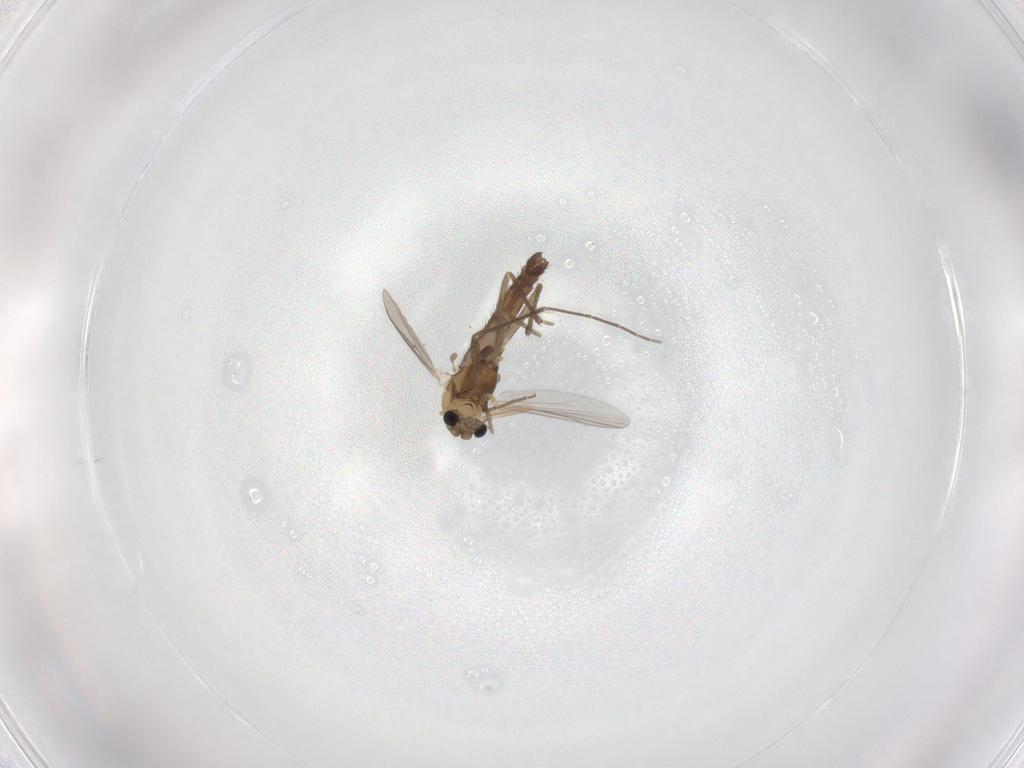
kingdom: Animalia
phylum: Arthropoda
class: Insecta
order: Diptera
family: Chironomidae
